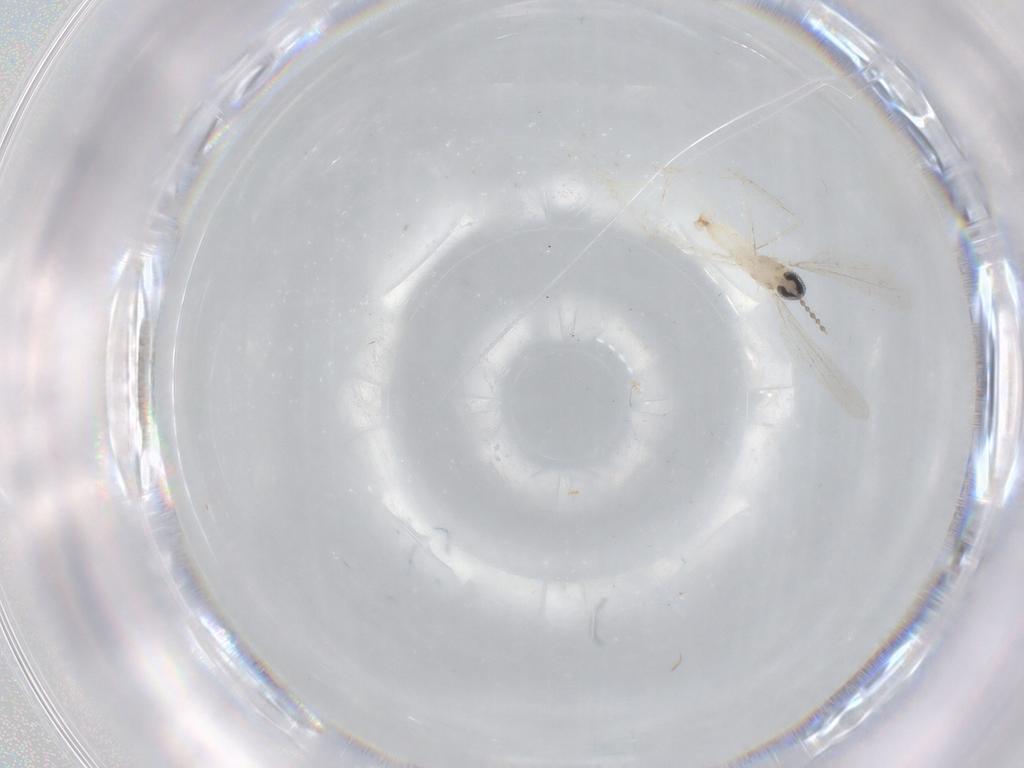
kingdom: Animalia
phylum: Arthropoda
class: Insecta
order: Diptera
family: Cecidomyiidae
